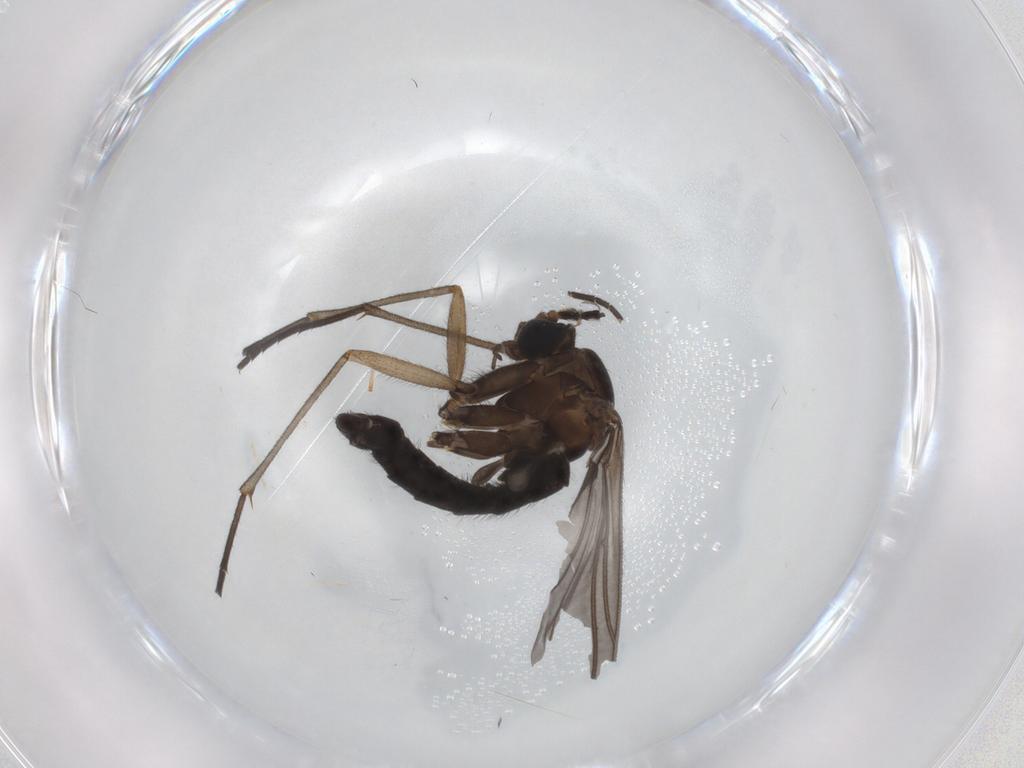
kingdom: Animalia
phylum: Arthropoda
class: Insecta
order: Diptera
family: Sciaridae
